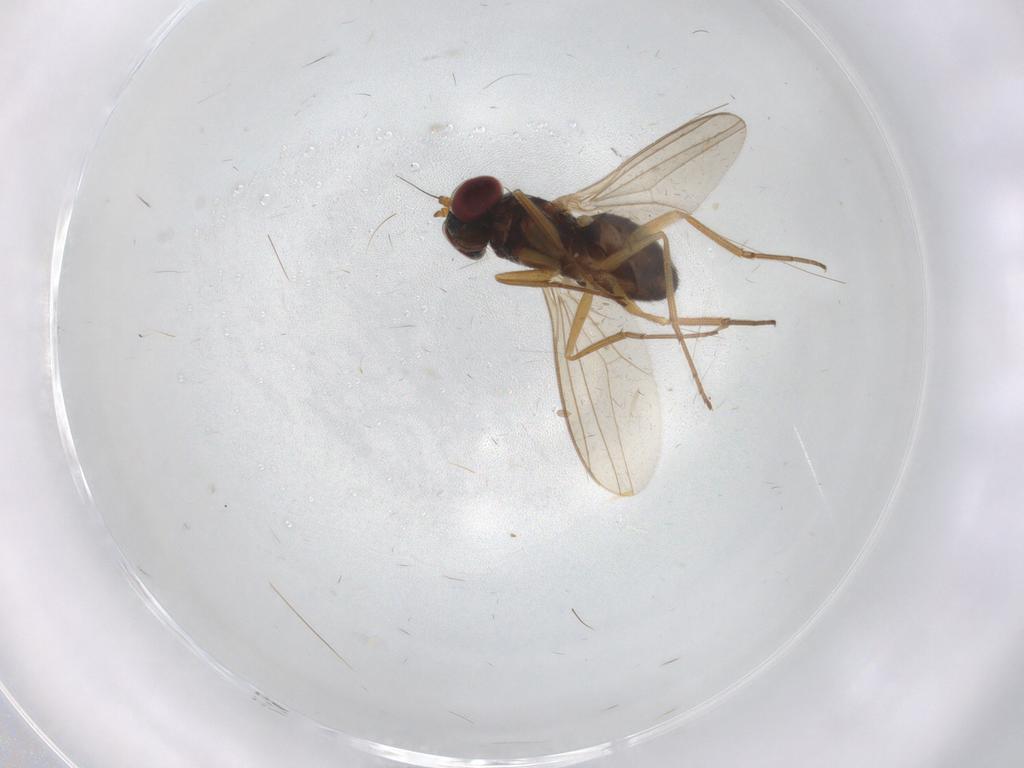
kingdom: Animalia
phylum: Arthropoda
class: Insecta
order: Diptera
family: Dolichopodidae
